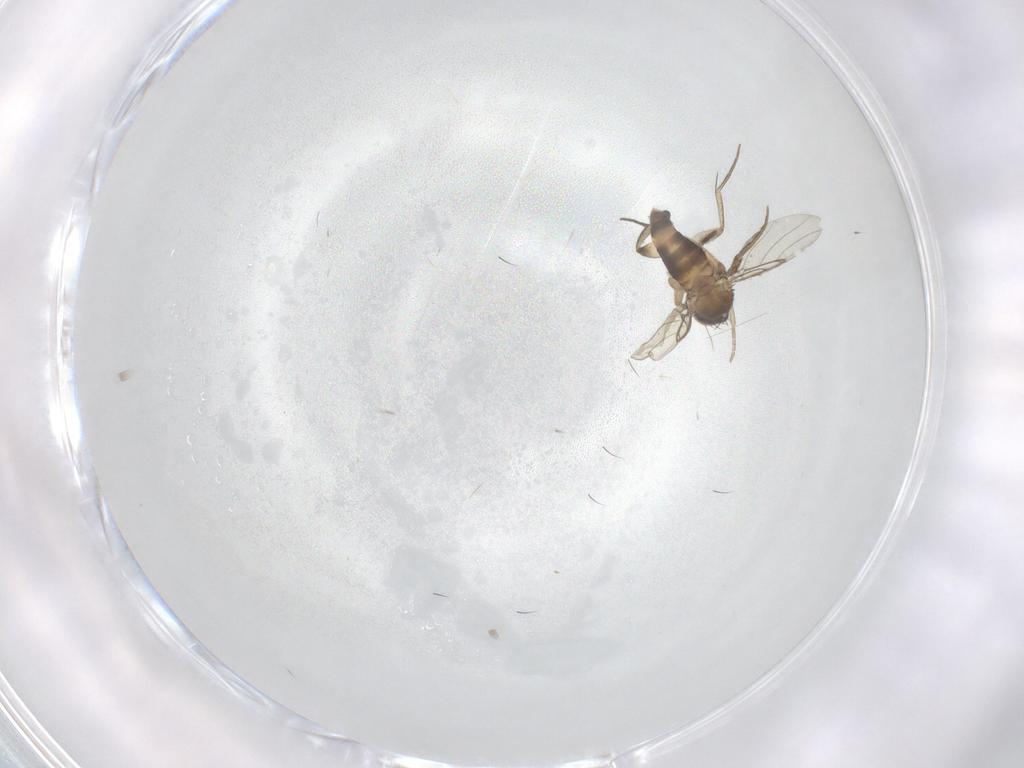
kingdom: Animalia
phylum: Arthropoda
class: Insecta
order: Diptera
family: Phoridae
